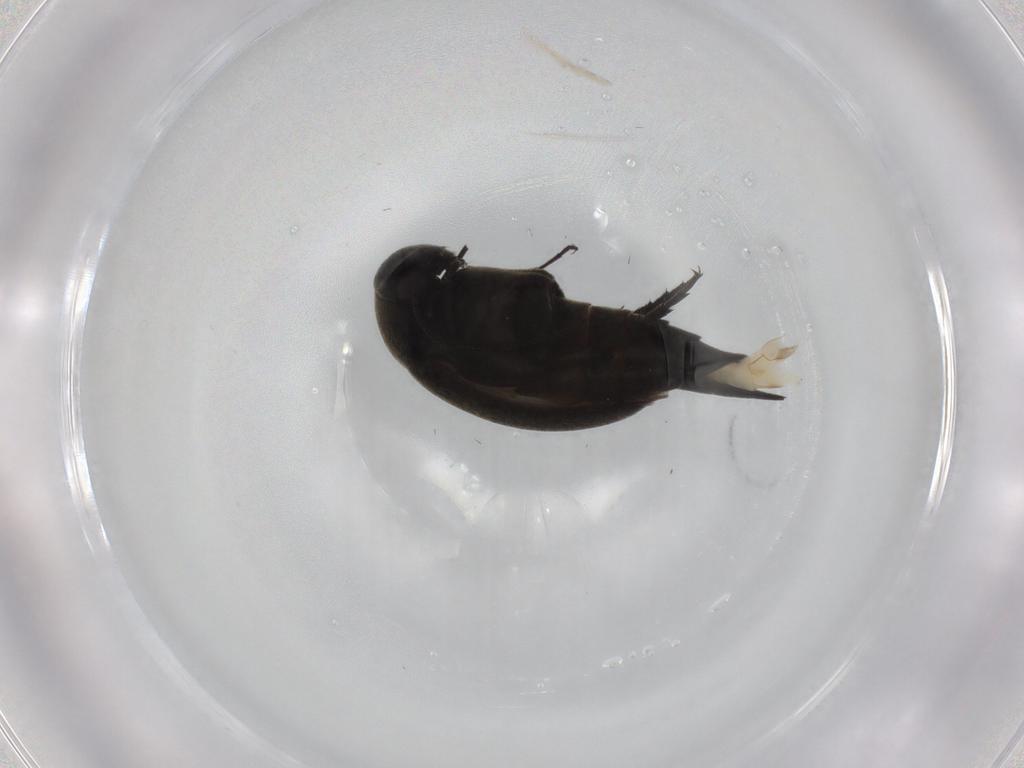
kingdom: Animalia
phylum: Arthropoda
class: Insecta
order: Coleoptera
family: Mordellidae
